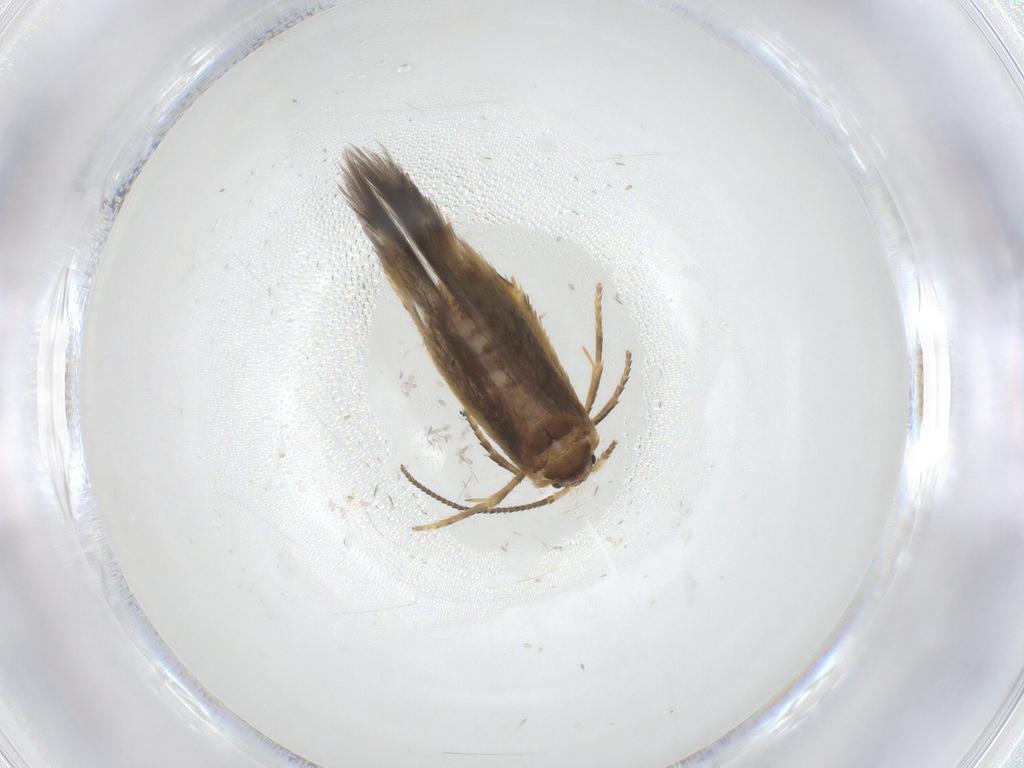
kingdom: Animalia
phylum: Arthropoda
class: Insecta
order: Lepidoptera
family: Nepticulidae
